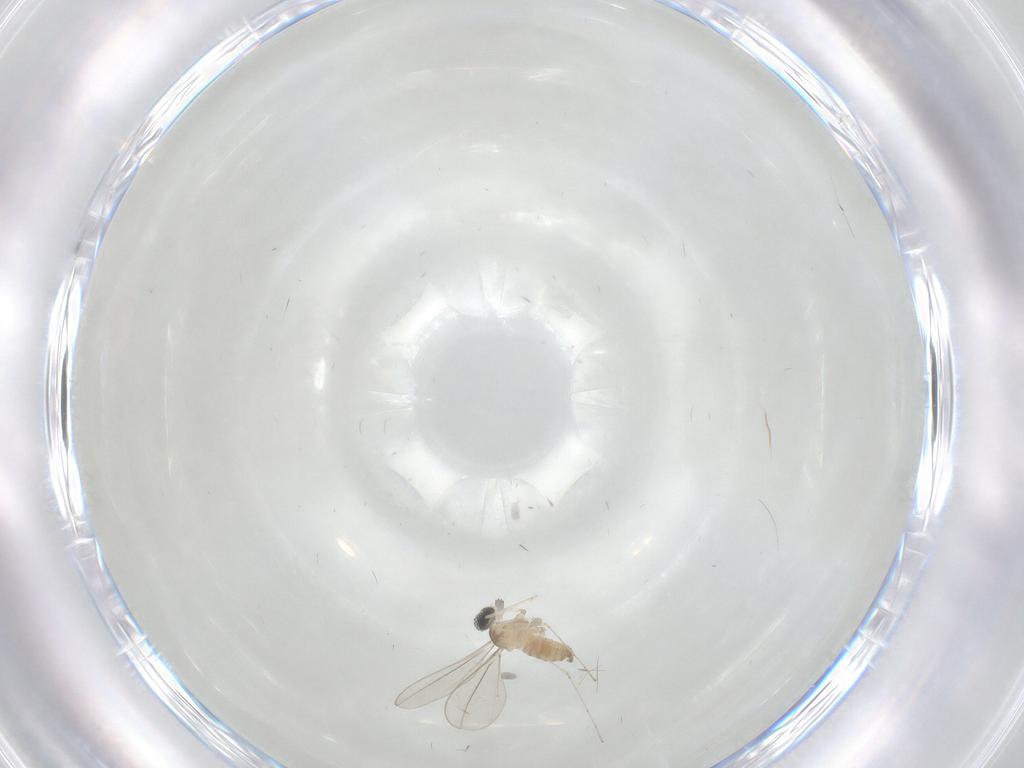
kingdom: Animalia
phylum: Arthropoda
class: Insecta
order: Diptera
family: Cecidomyiidae
